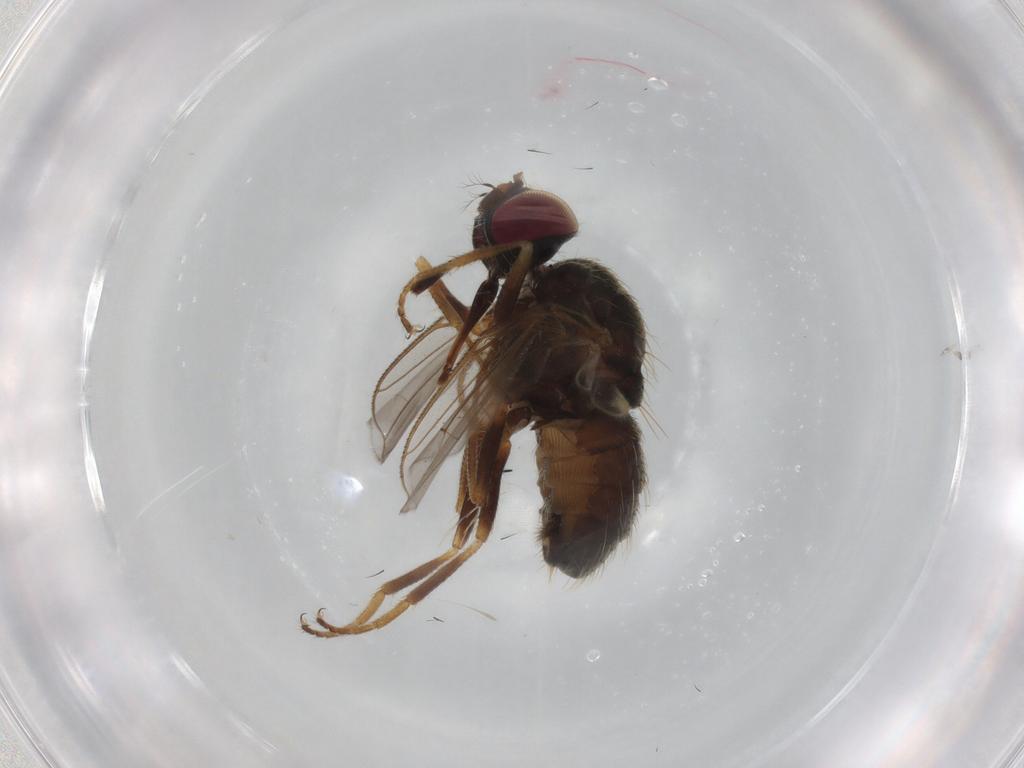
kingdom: Animalia
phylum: Arthropoda
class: Insecta
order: Diptera
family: Muscidae
